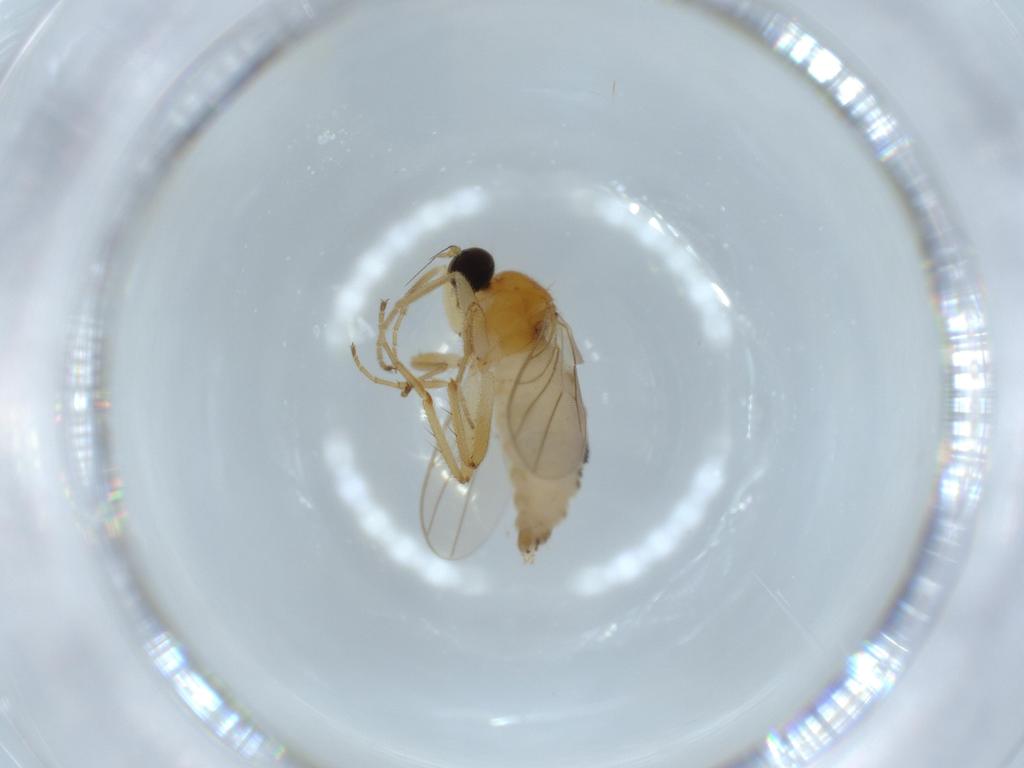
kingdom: Animalia
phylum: Arthropoda
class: Insecta
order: Diptera
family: Hybotidae
